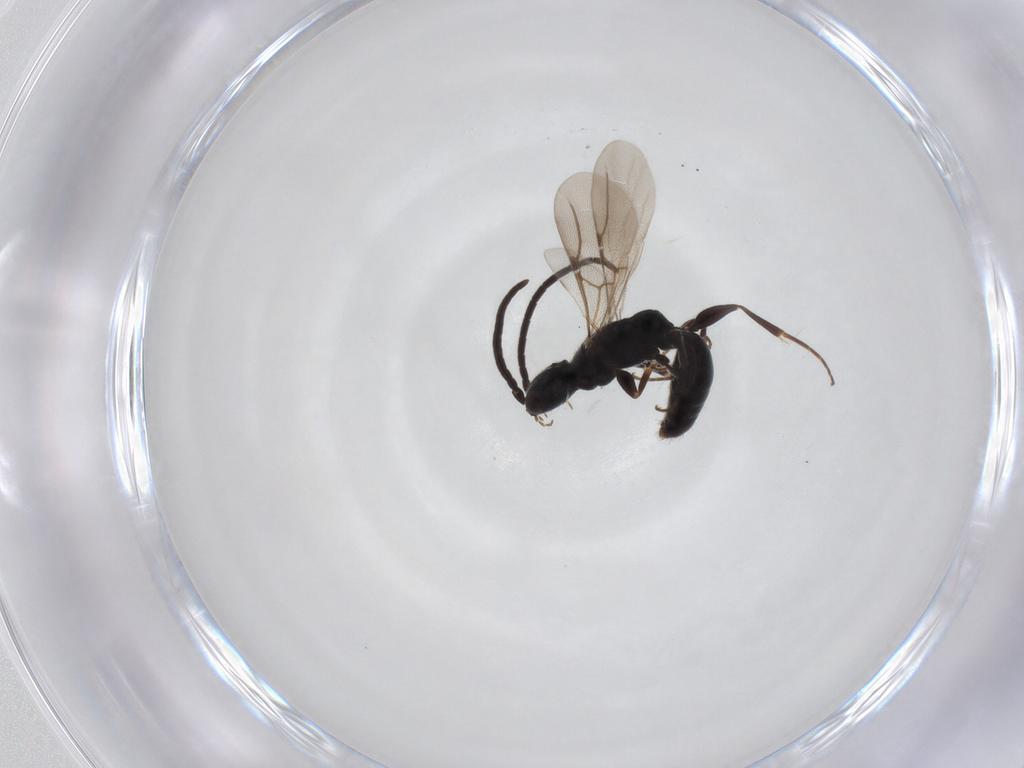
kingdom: Animalia
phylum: Arthropoda
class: Insecta
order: Hymenoptera
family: Bethylidae
